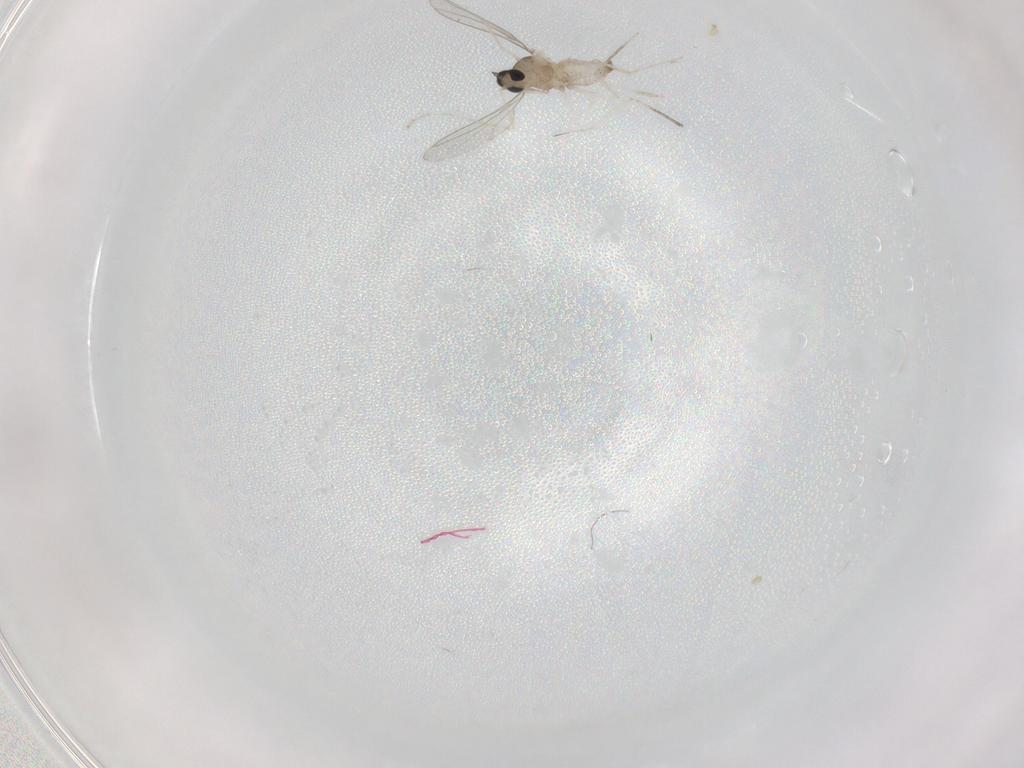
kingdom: Animalia
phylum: Arthropoda
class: Insecta
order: Diptera
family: Cecidomyiidae
